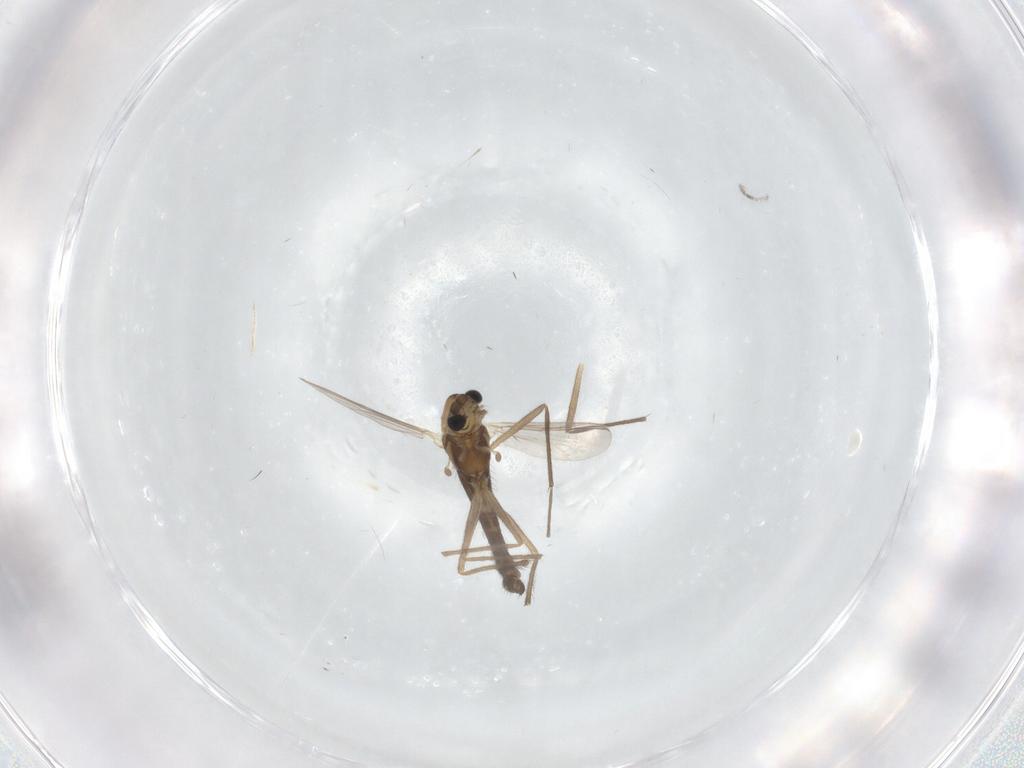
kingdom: Animalia
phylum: Arthropoda
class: Insecta
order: Diptera
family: Chironomidae
